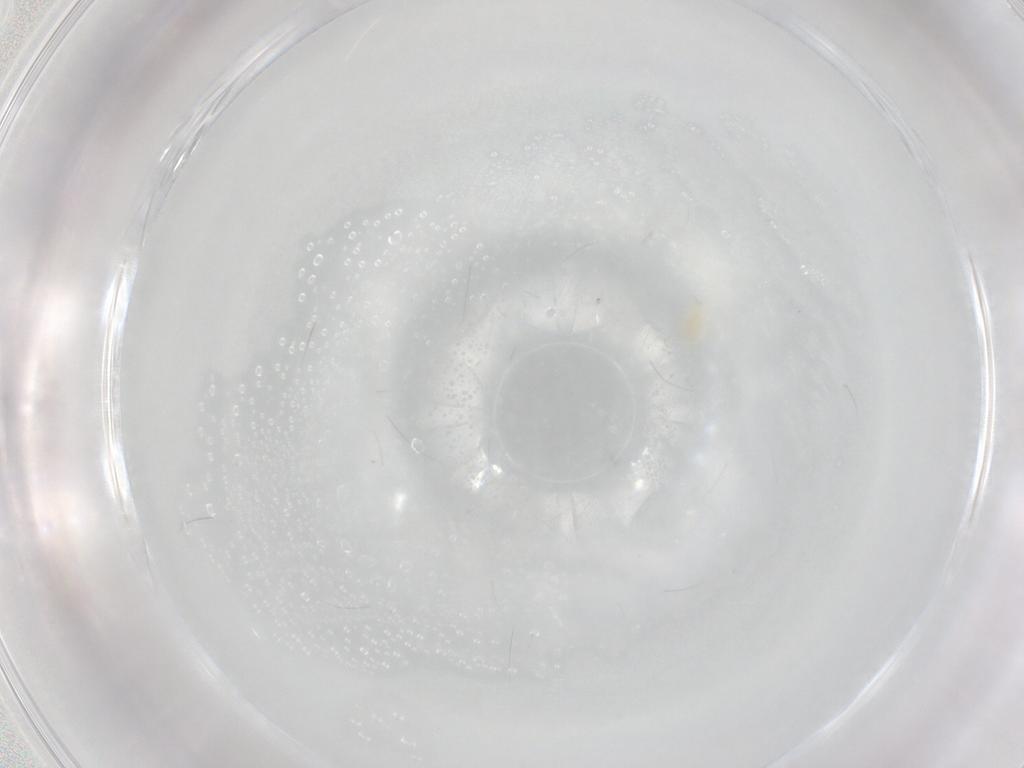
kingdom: Animalia
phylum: Arthropoda
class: Arachnida
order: Trombidiformes
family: Eupodidae
